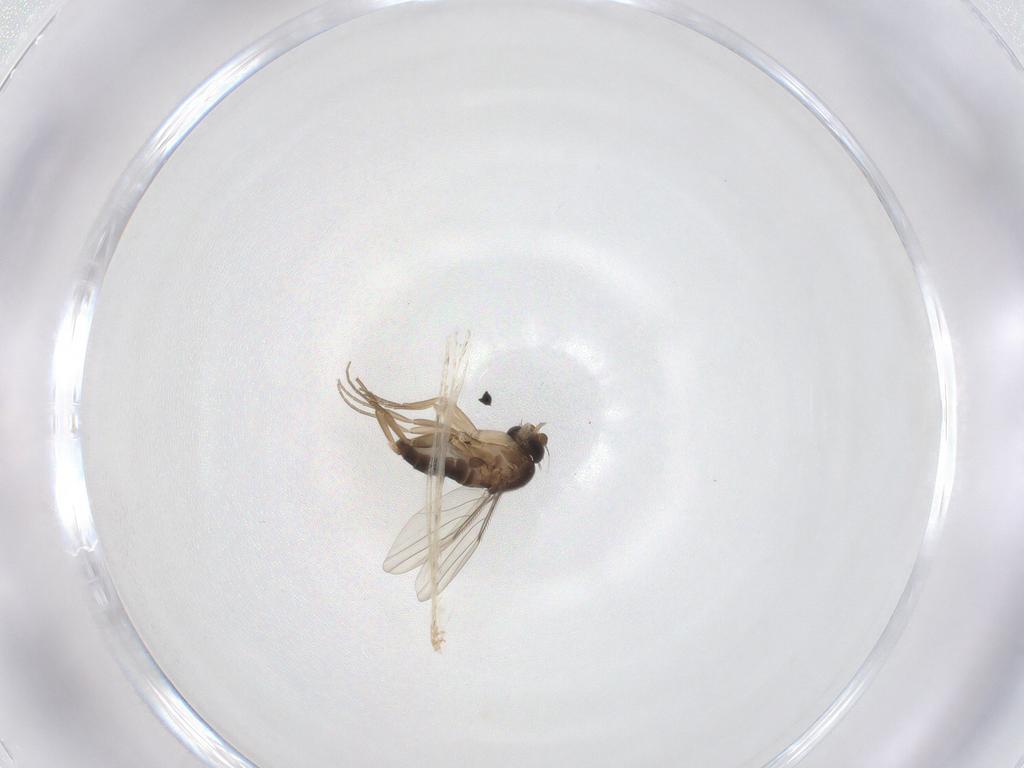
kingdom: Animalia
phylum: Arthropoda
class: Insecta
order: Diptera
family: Phoridae
